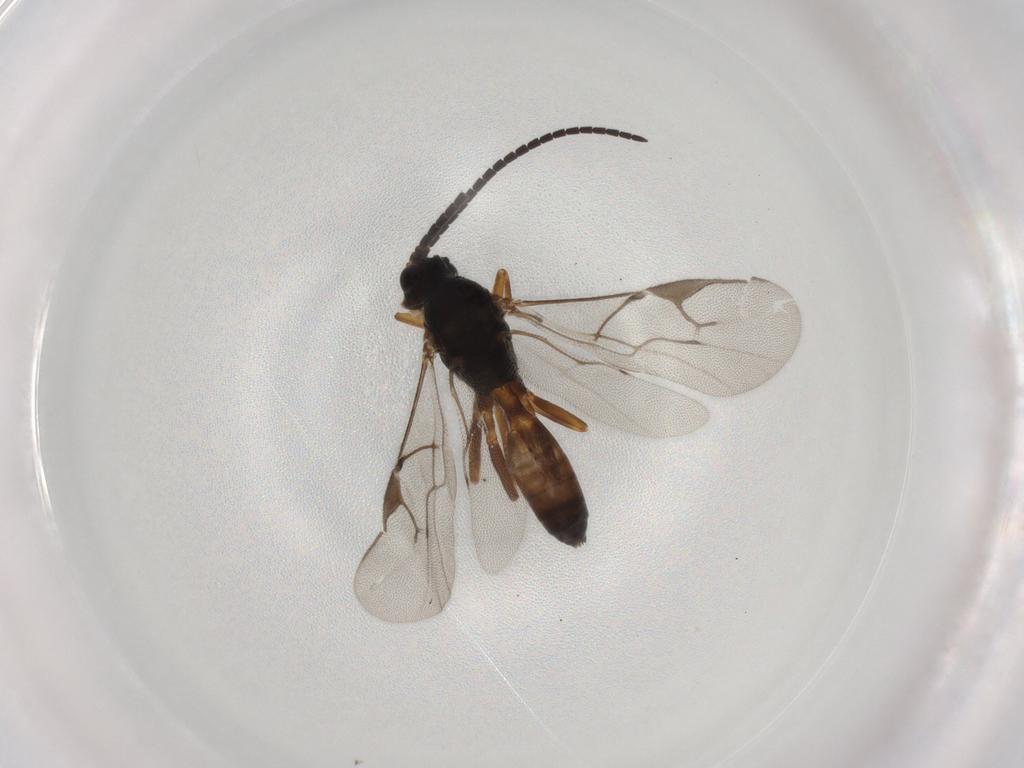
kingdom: Animalia
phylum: Arthropoda
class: Insecta
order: Hymenoptera
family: Braconidae
